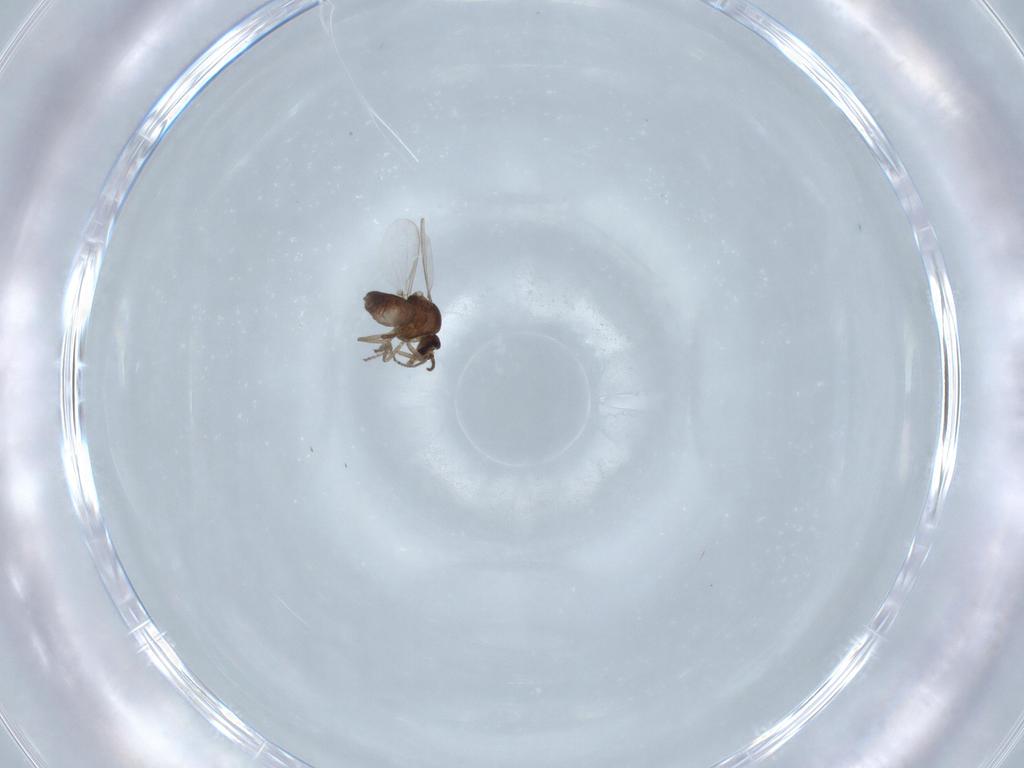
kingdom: Animalia
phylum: Arthropoda
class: Insecta
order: Diptera
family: Ceratopogonidae
